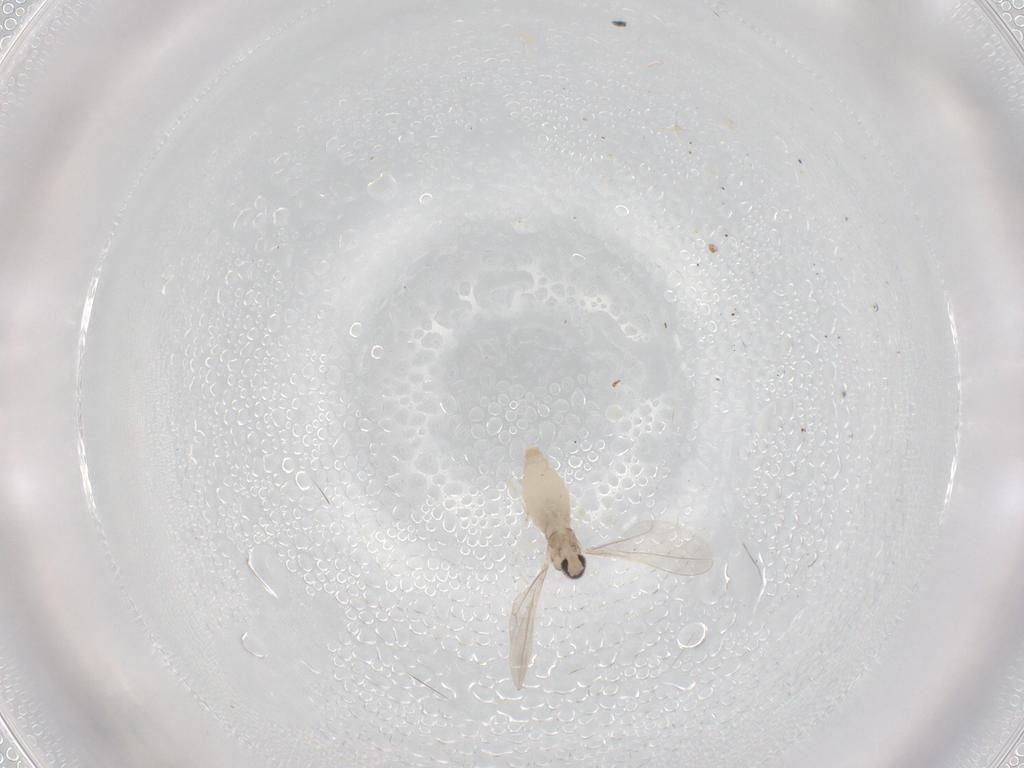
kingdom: Animalia
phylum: Arthropoda
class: Insecta
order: Diptera
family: Cecidomyiidae
